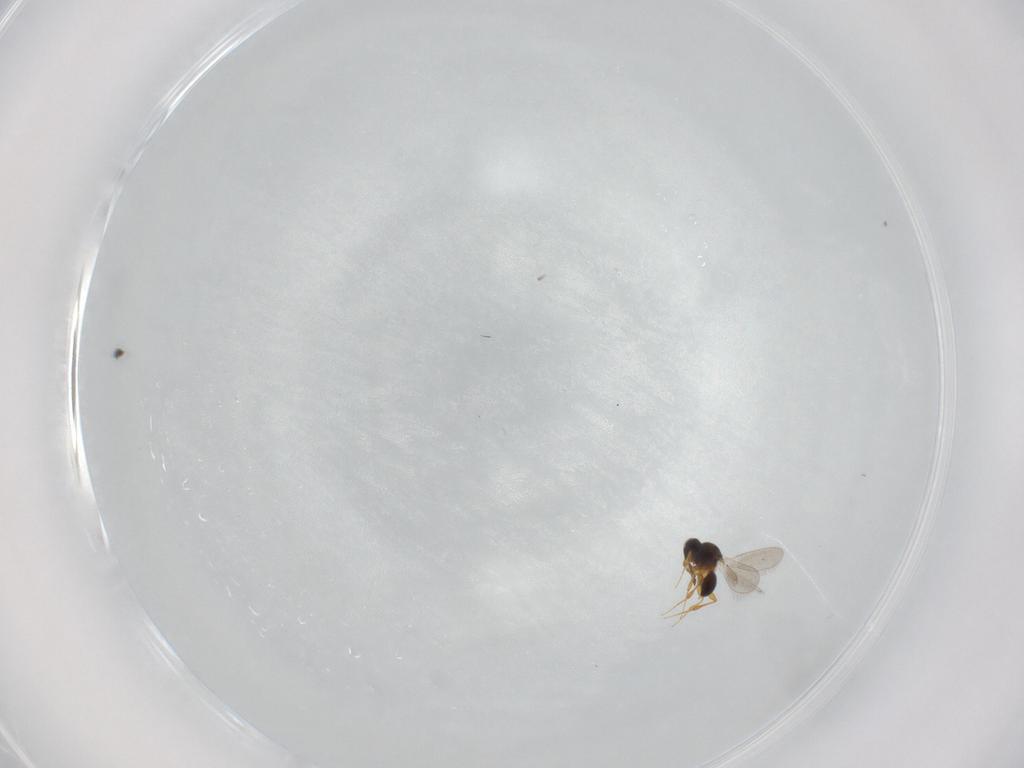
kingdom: Animalia
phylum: Arthropoda
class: Insecta
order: Hymenoptera
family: Platygastridae
